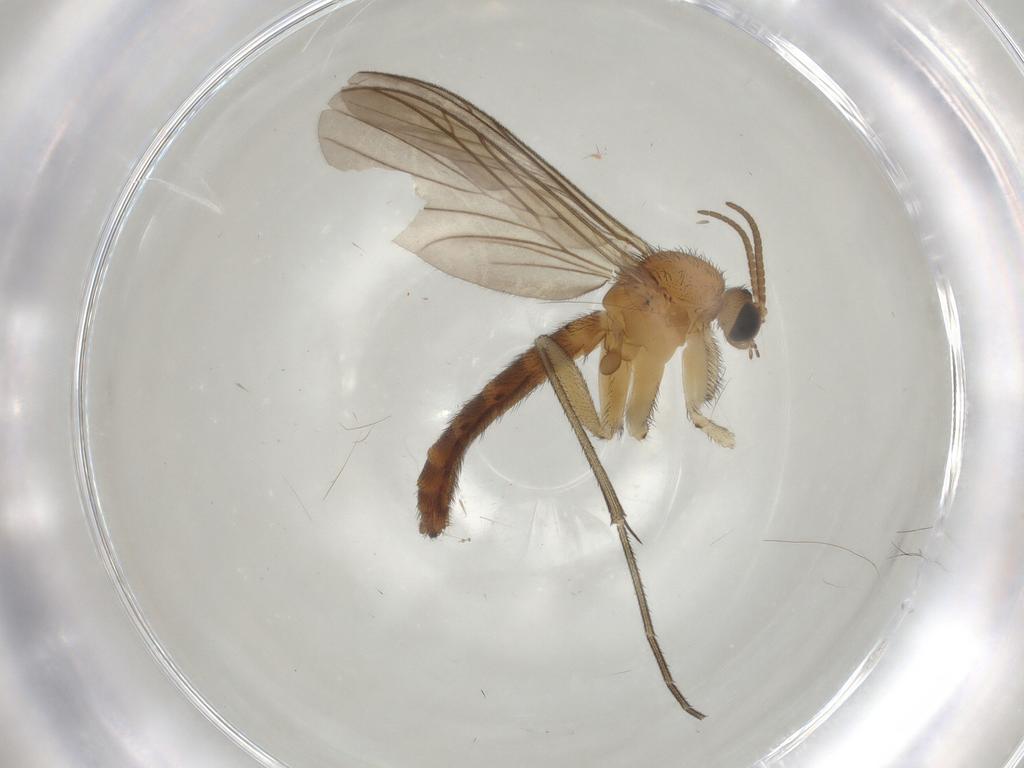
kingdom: Animalia
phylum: Arthropoda
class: Insecta
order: Diptera
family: Keroplatidae
